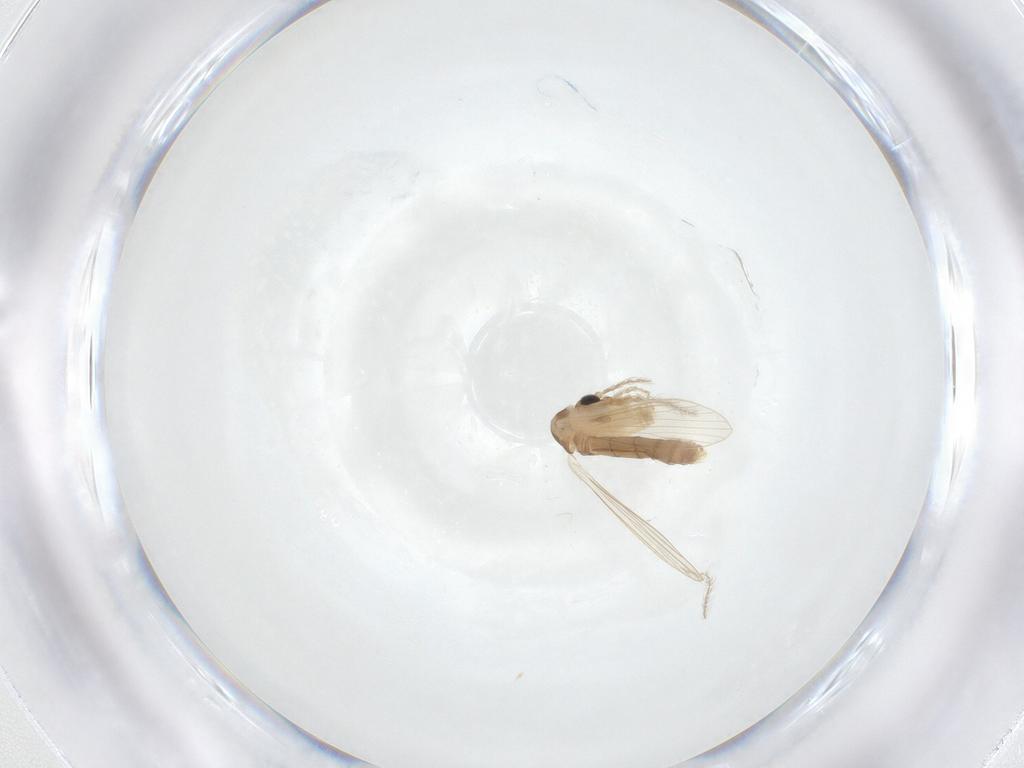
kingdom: Animalia
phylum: Arthropoda
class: Insecta
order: Diptera
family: Psychodidae
